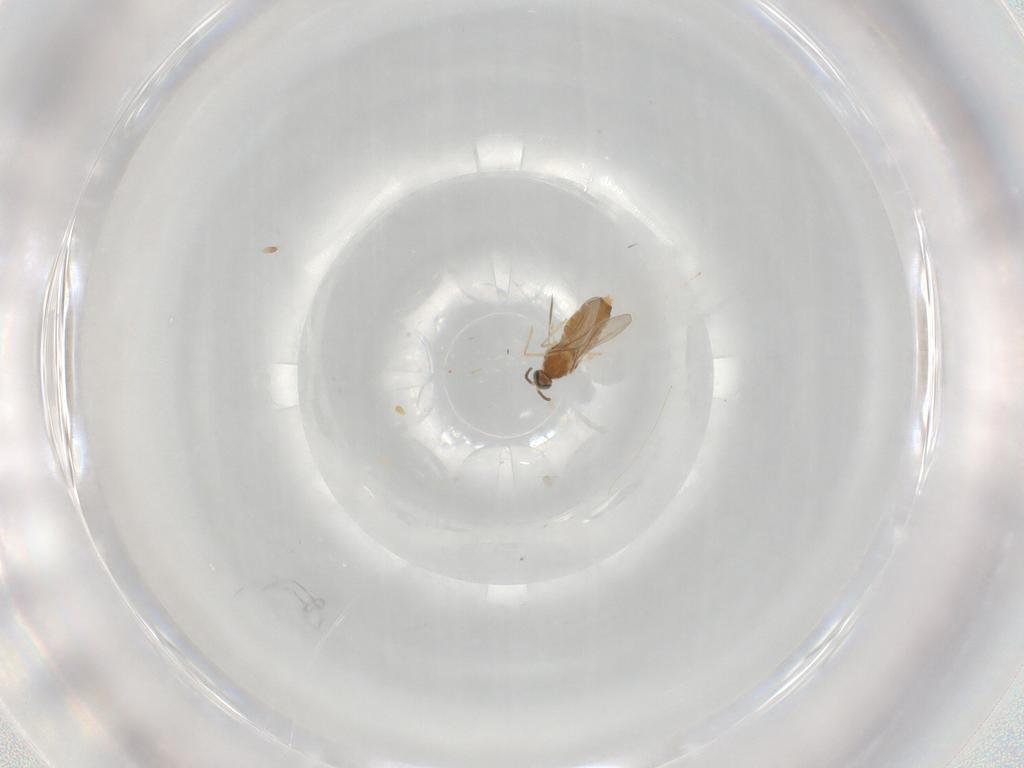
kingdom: Animalia
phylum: Arthropoda
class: Insecta
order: Diptera
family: Cecidomyiidae
